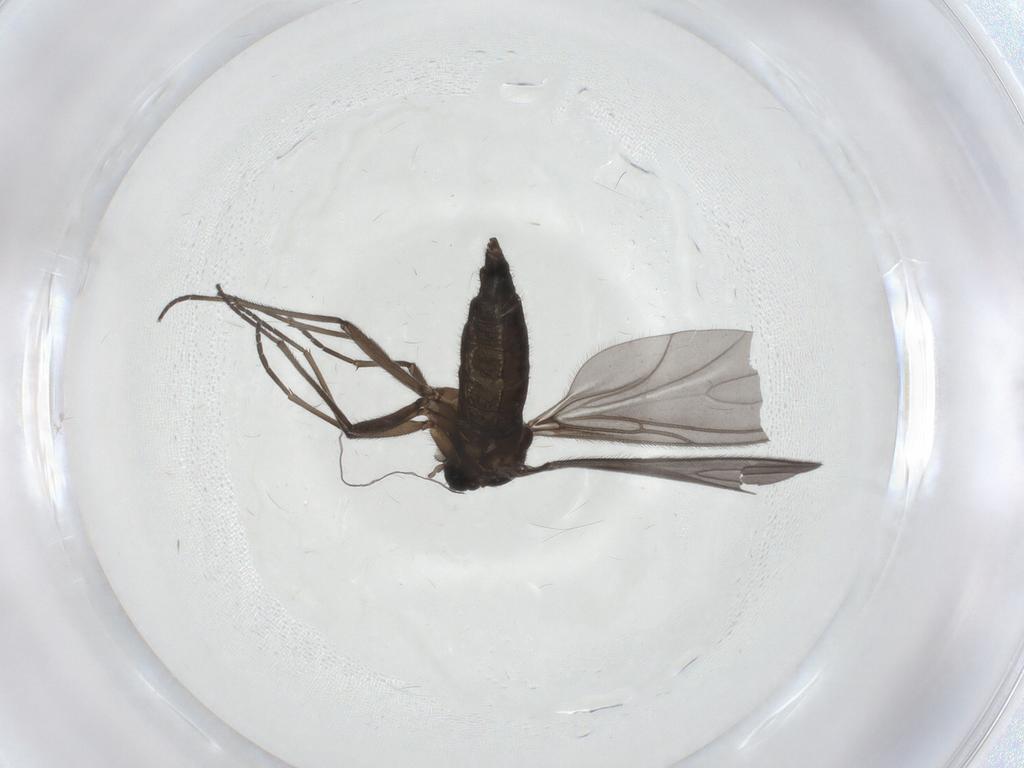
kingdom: Animalia
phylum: Arthropoda
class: Insecta
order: Diptera
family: Sciaridae
